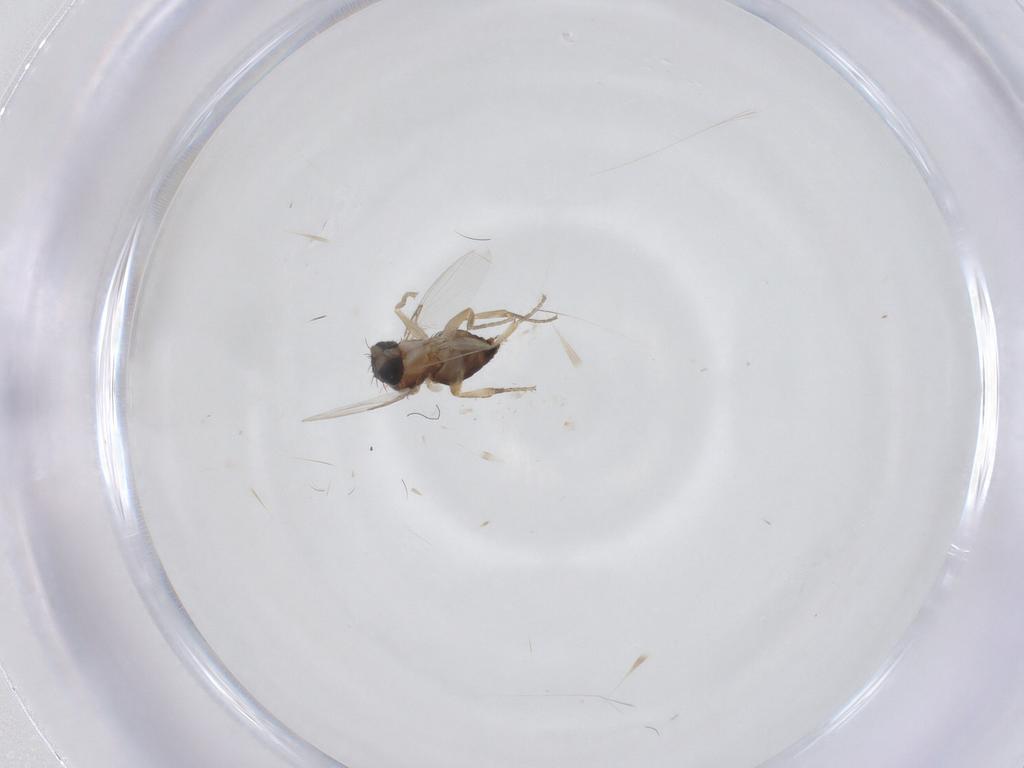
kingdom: Animalia
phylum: Arthropoda
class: Insecta
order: Diptera
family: Phoridae
